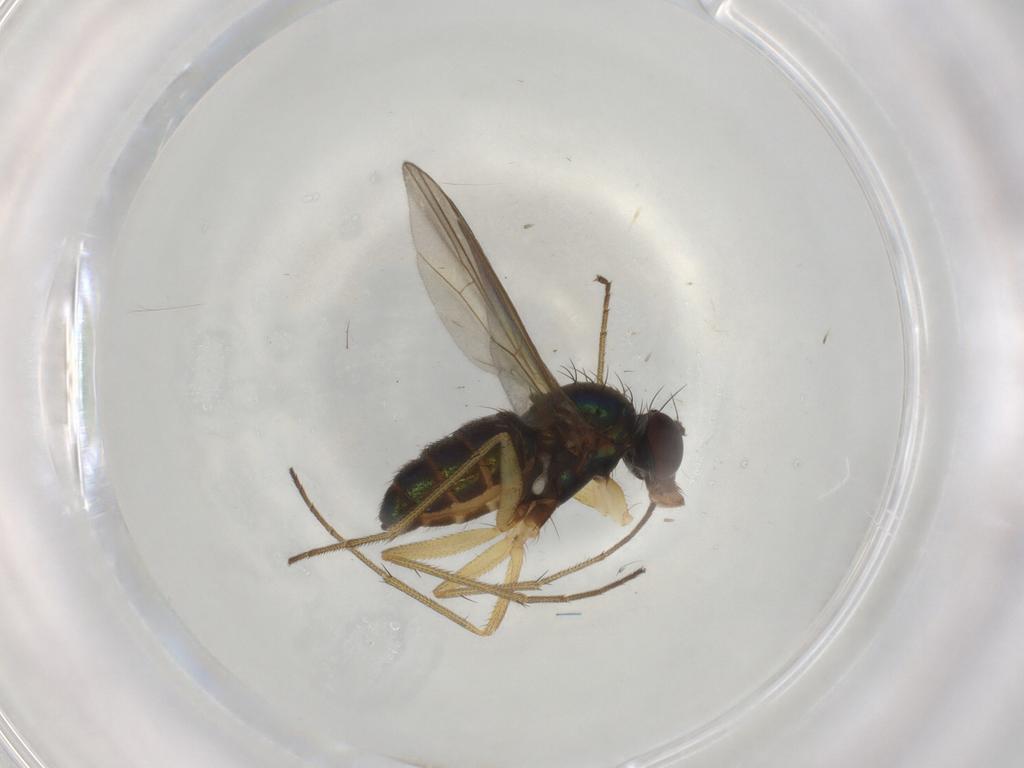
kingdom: Animalia
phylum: Arthropoda
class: Insecta
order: Diptera
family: Dolichopodidae
